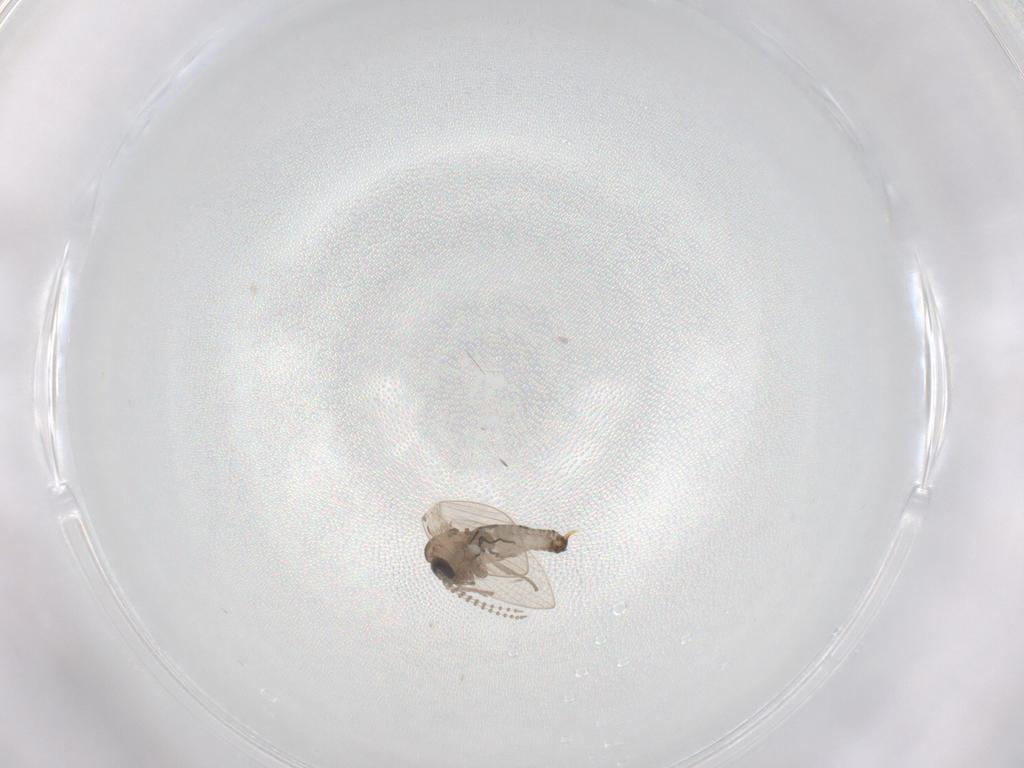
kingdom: Animalia
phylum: Arthropoda
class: Insecta
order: Diptera
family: Psychodidae
